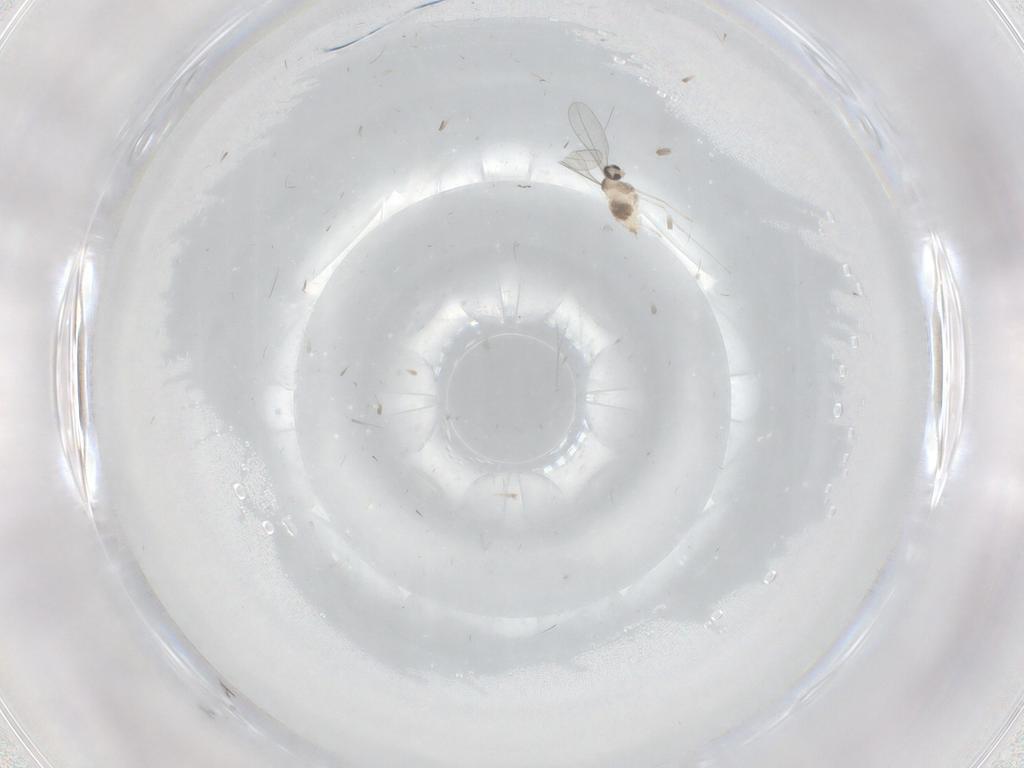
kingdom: Animalia
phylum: Arthropoda
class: Insecta
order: Diptera
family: Cecidomyiidae
